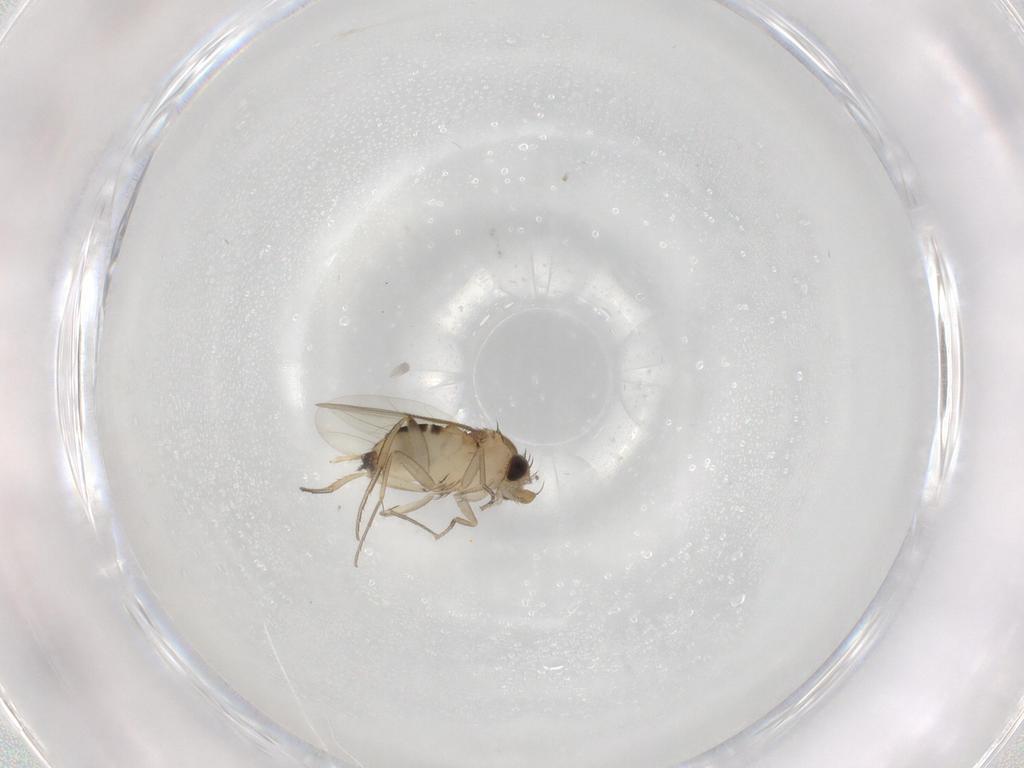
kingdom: Animalia
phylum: Arthropoda
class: Insecta
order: Diptera
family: Phoridae
